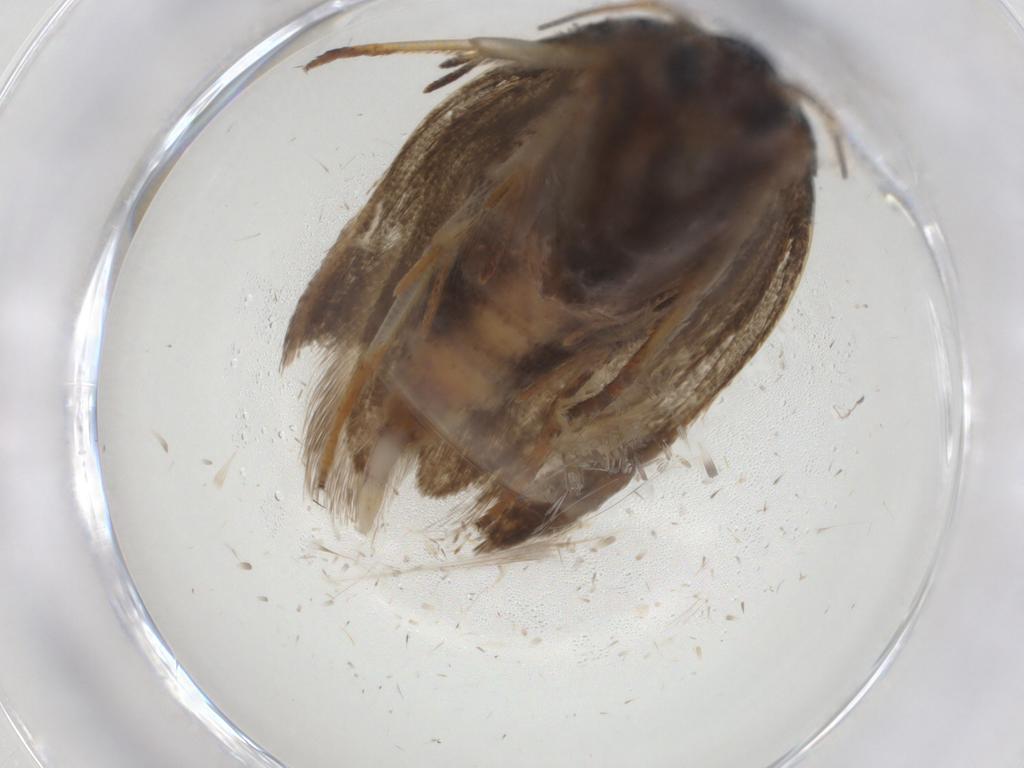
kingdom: Animalia
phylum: Arthropoda
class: Insecta
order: Lepidoptera
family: Erebidae
